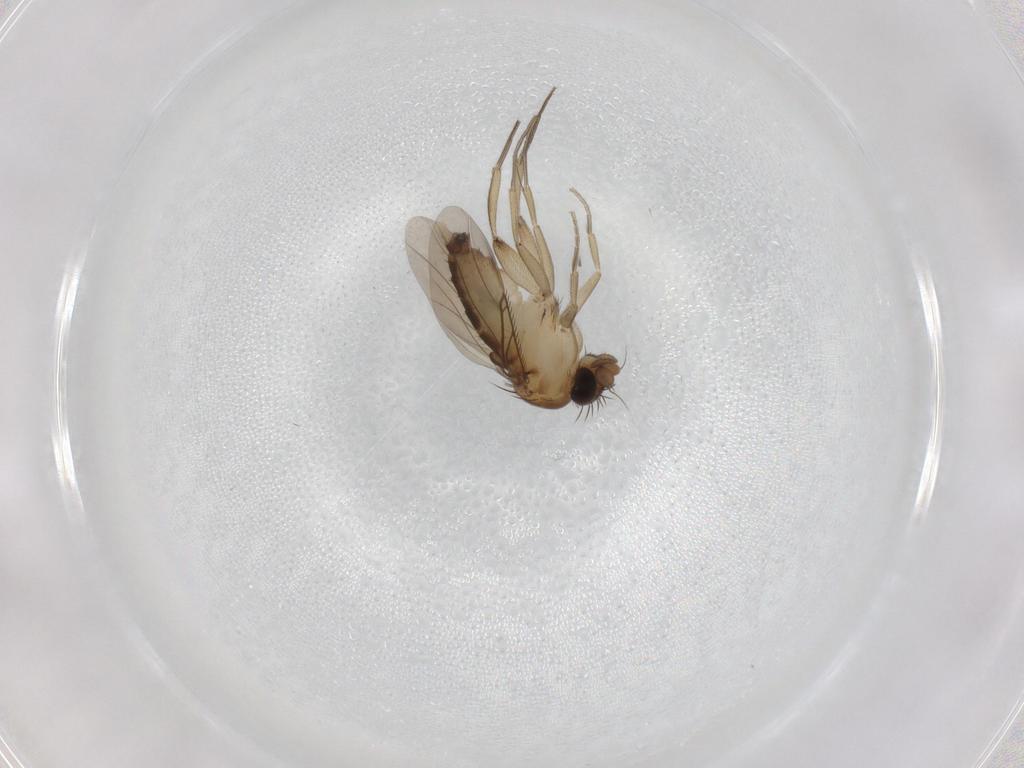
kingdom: Animalia
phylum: Arthropoda
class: Insecta
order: Diptera
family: Phoridae
